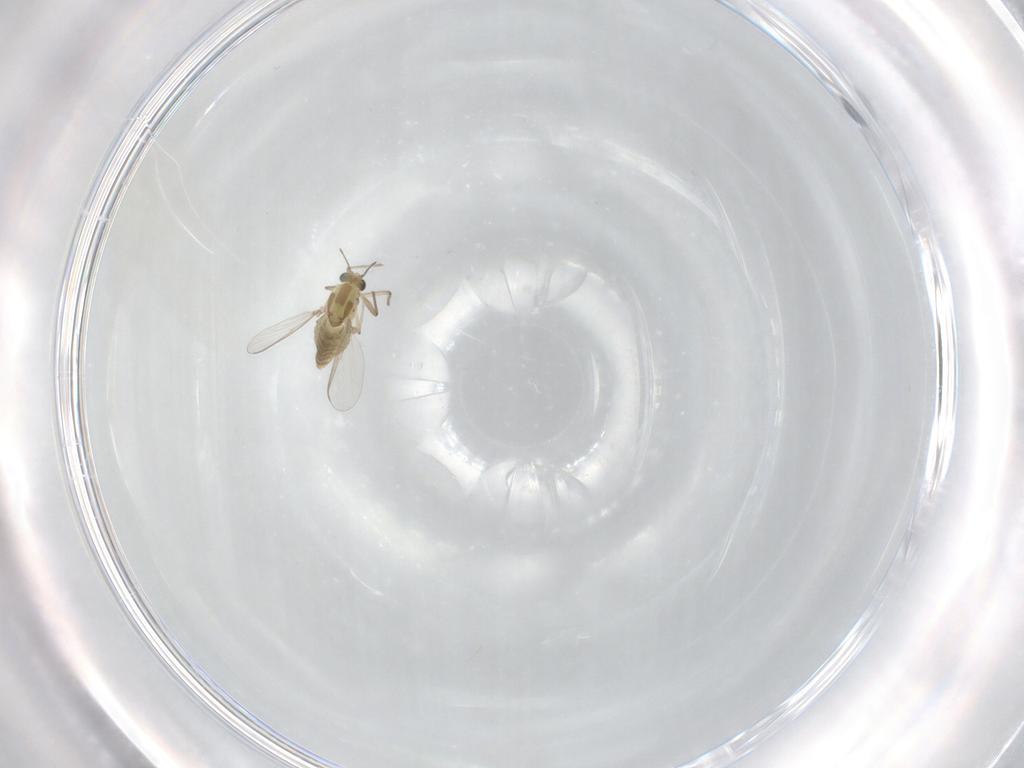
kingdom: Animalia
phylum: Arthropoda
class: Insecta
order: Diptera
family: Chironomidae
